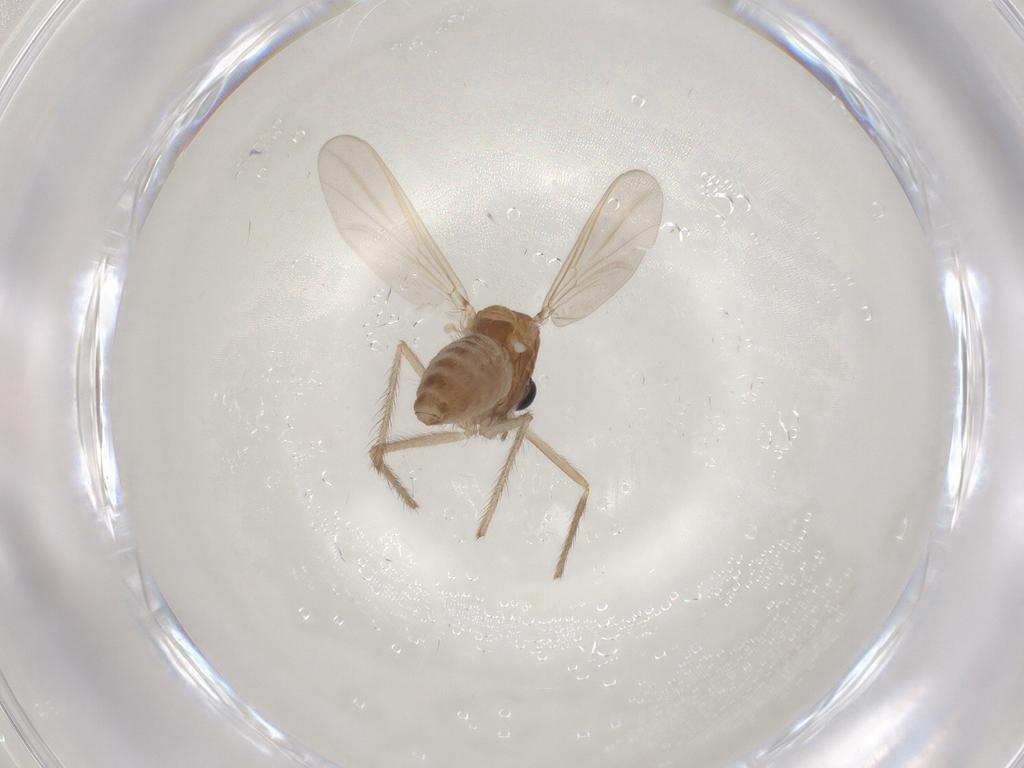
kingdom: Animalia
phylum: Arthropoda
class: Insecta
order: Diptera
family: Chironomidae
